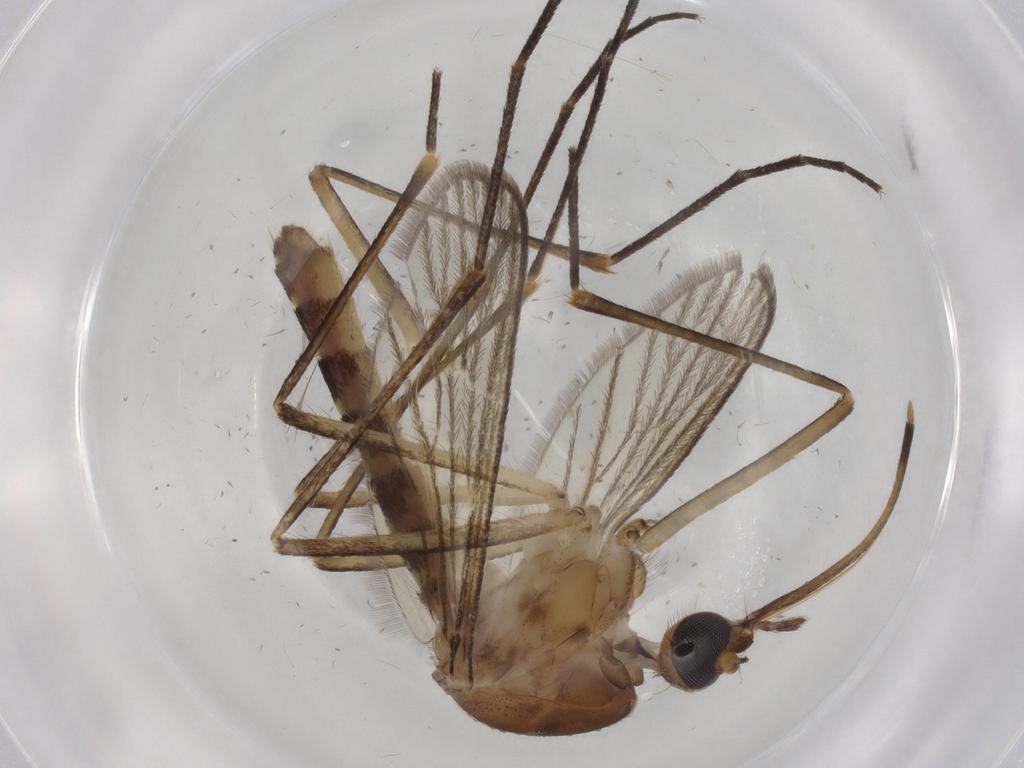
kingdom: Animalia
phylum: Arthropoda
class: Insecta
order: Diptera
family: Cecidomyiidae
